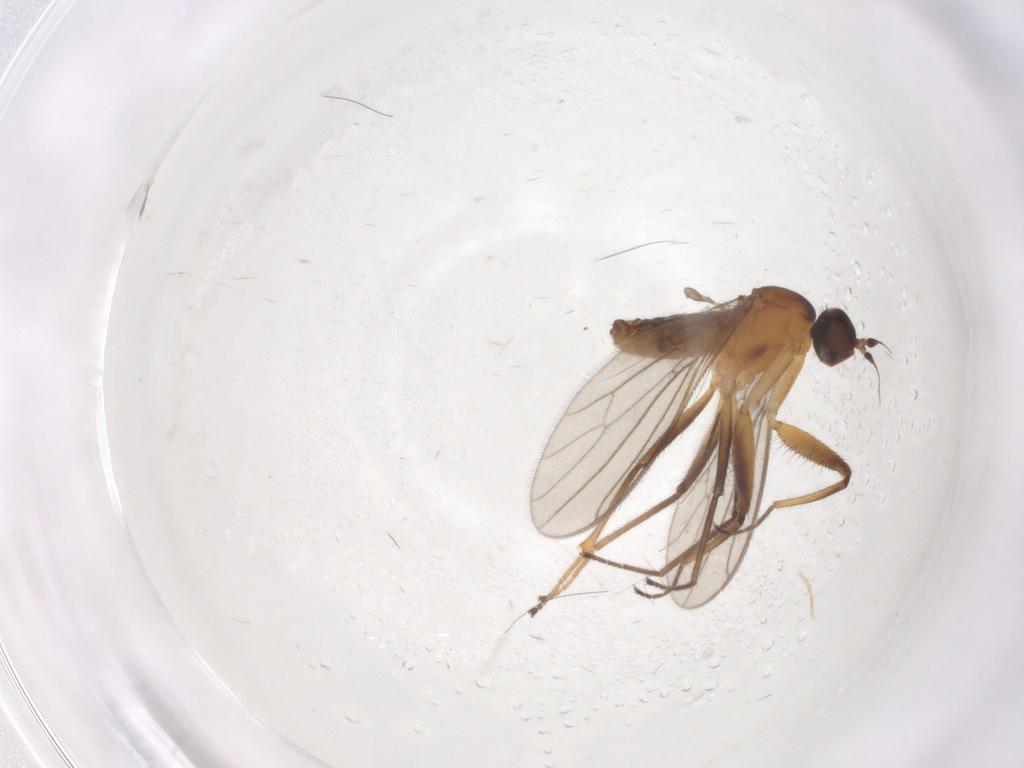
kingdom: Animalia
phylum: Arthropoda
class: Insecta
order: Diptera
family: Empididae
